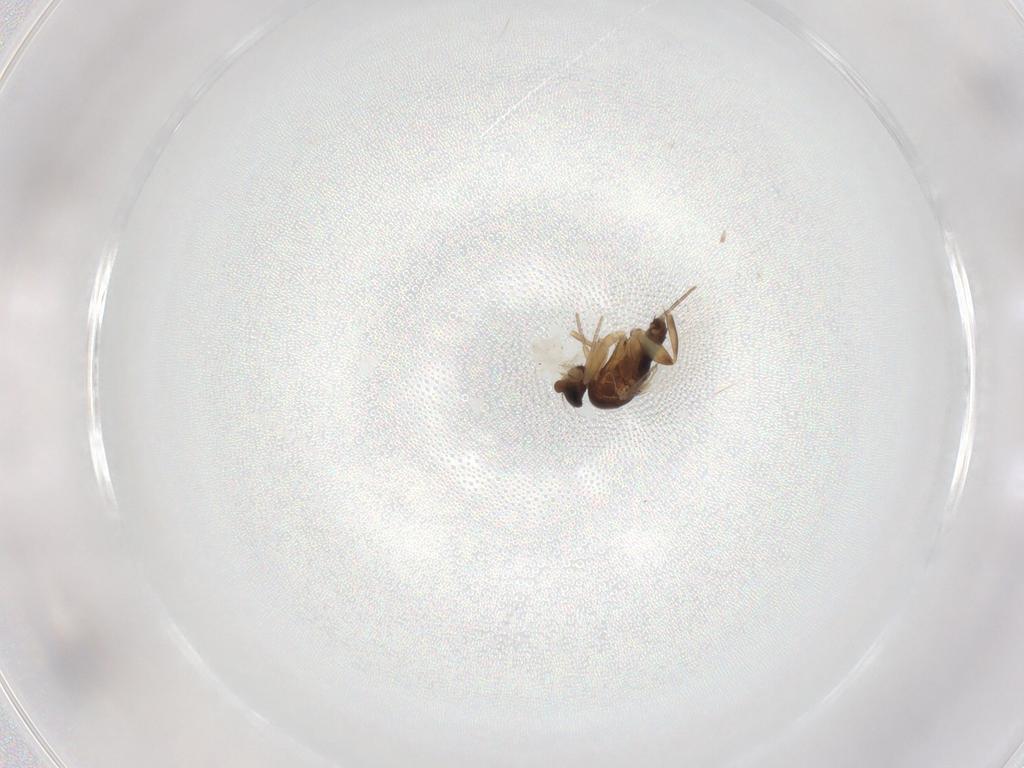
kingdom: Animalia
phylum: Arthropoda
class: Insecta
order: Diptera
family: Phoridae
